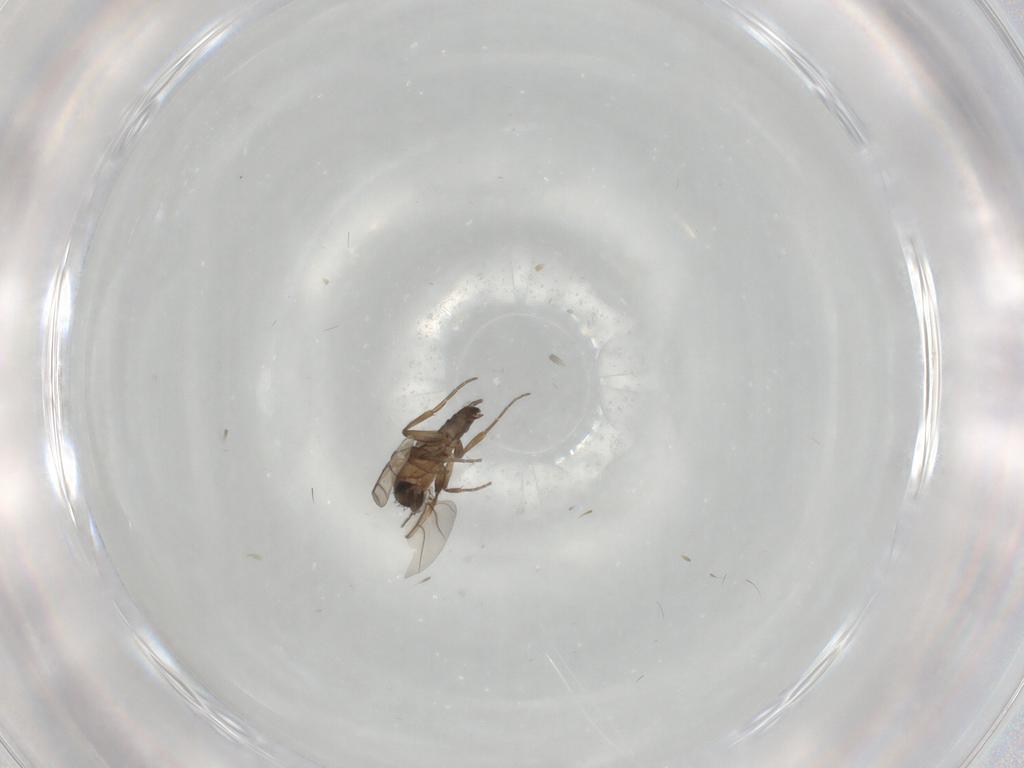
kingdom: Animalia
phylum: Arthropoda
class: Insecta
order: Diptera
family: Phoridae
